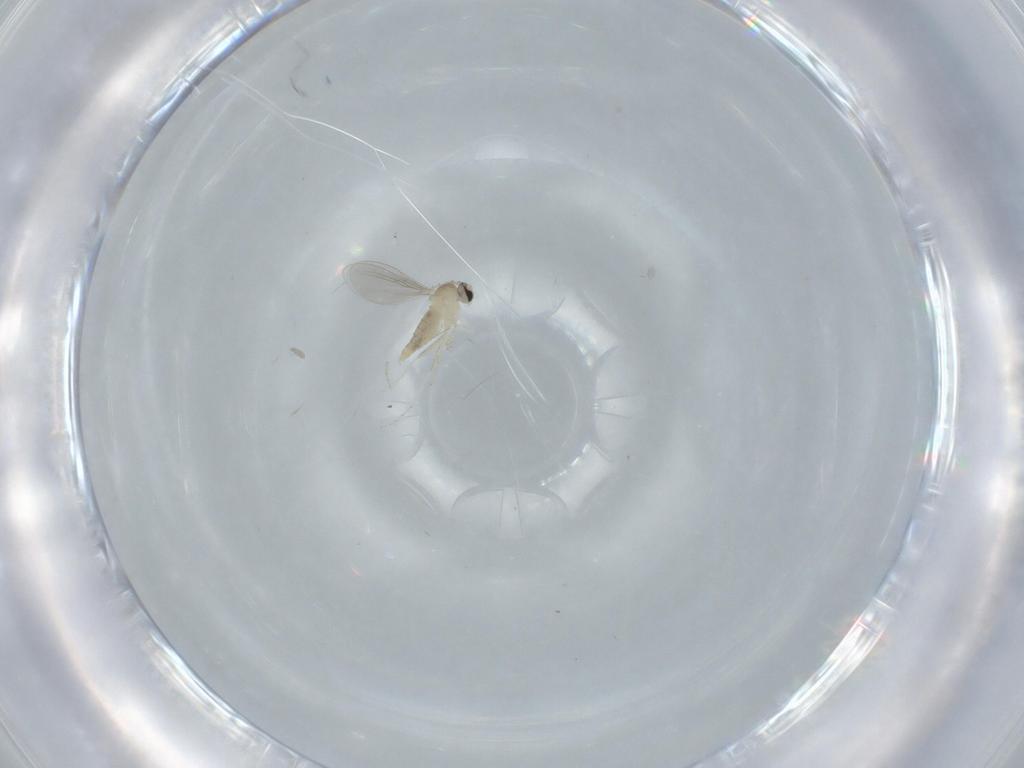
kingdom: Animalia
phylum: Arthropoda
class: Insecta
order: Diptera
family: Cecidomyiidae
